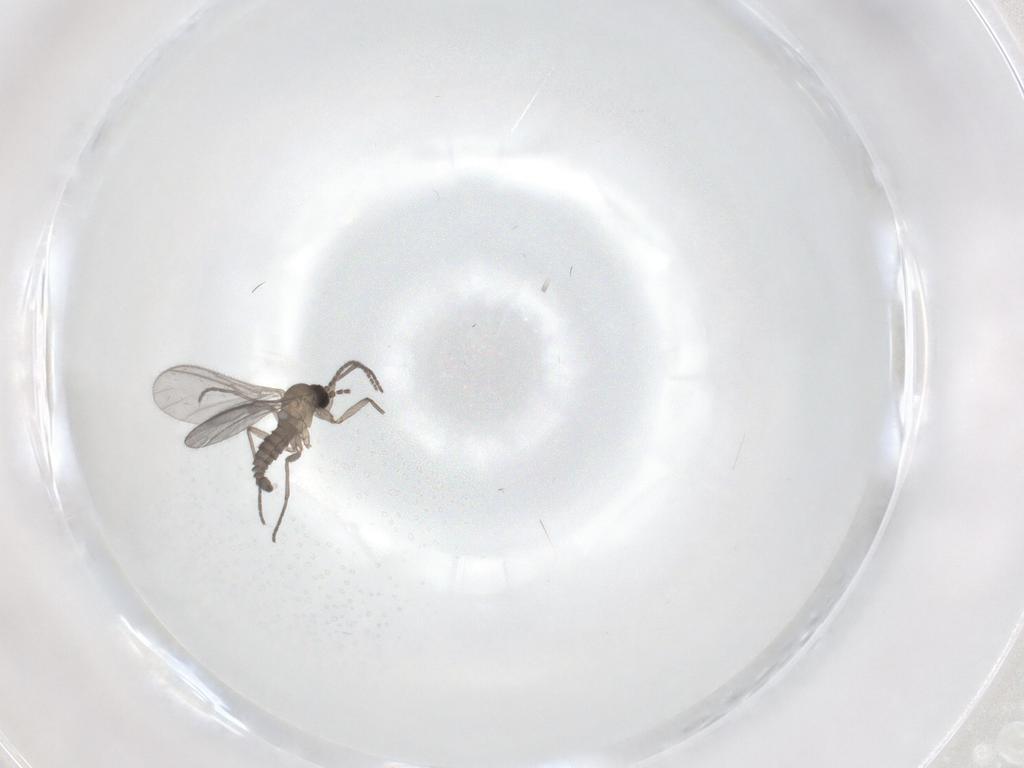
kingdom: Animalia
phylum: Arthropoda
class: Insecta
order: Diptera
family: Sciaridae
